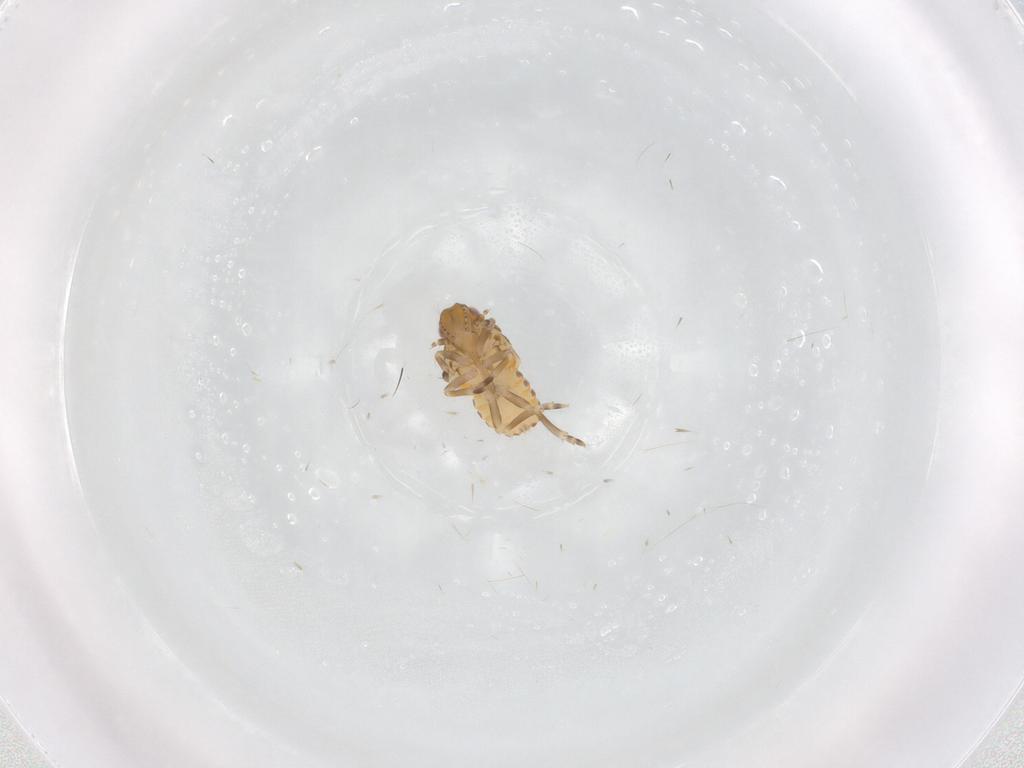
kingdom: Animalia
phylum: Arthropoda
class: Insecta
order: Hemiptera
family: Flatidae
